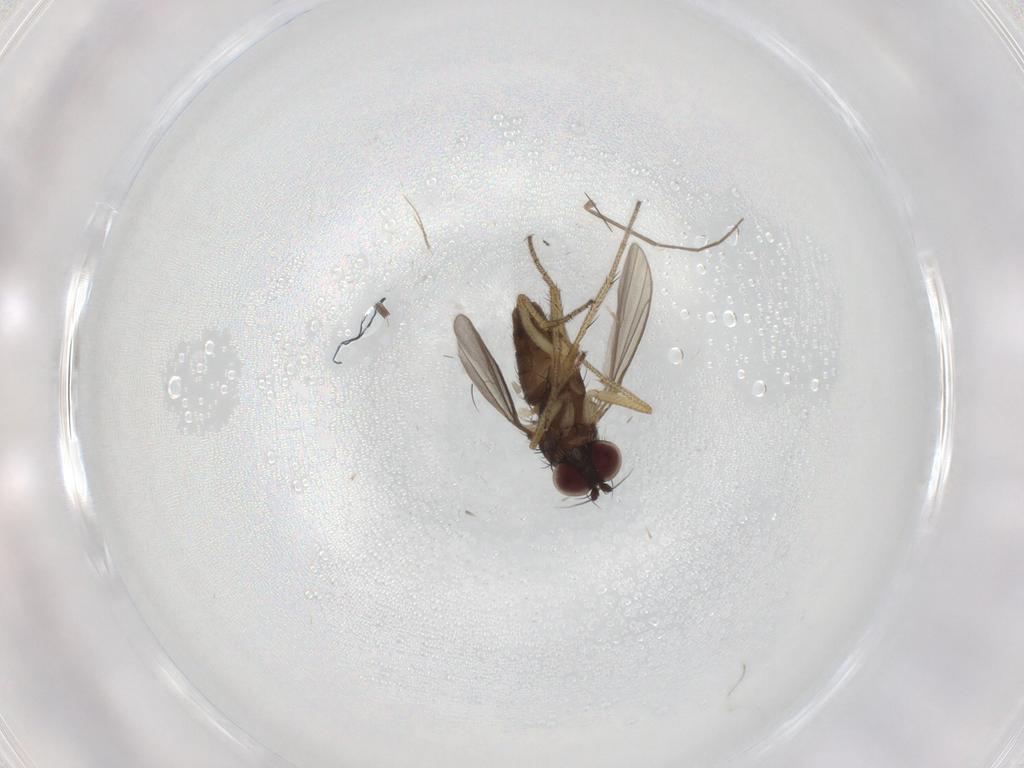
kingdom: Animalia
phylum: Arthropoda
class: Insecta
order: Diptera
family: Chironomidae
